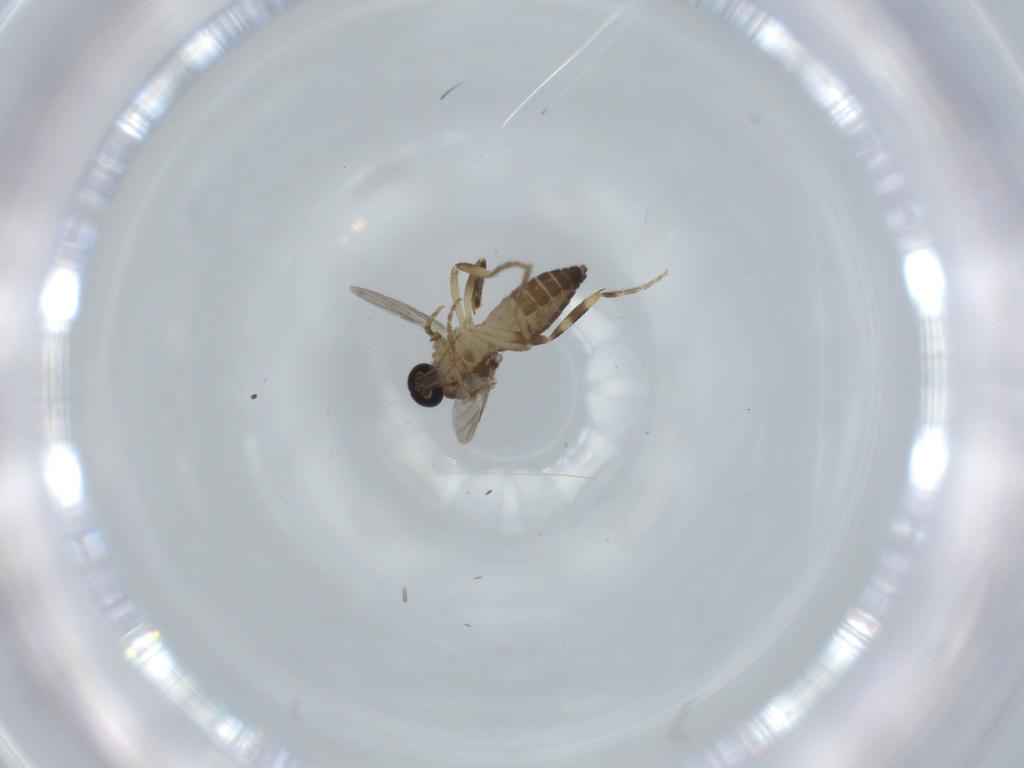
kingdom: Animalia
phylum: Arthropoda
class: Insecta
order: Diptera
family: Ceratopogonidae
